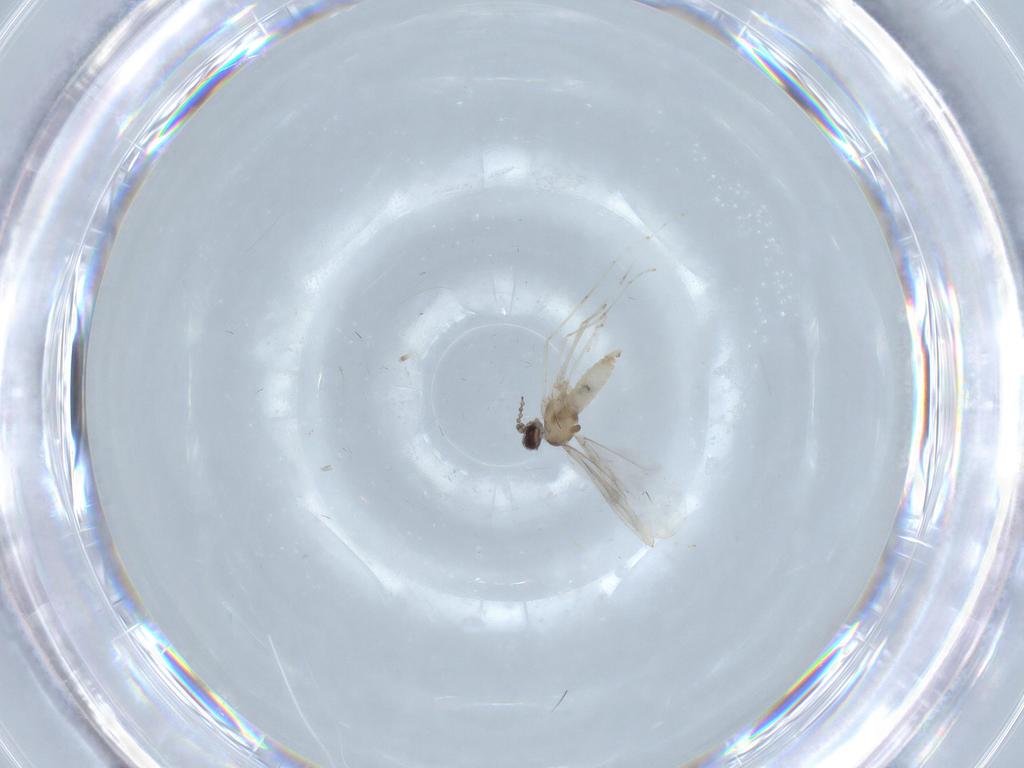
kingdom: Animalia
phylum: Arthropoda
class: Insecta
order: Diptera
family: Cecidomyiidae
